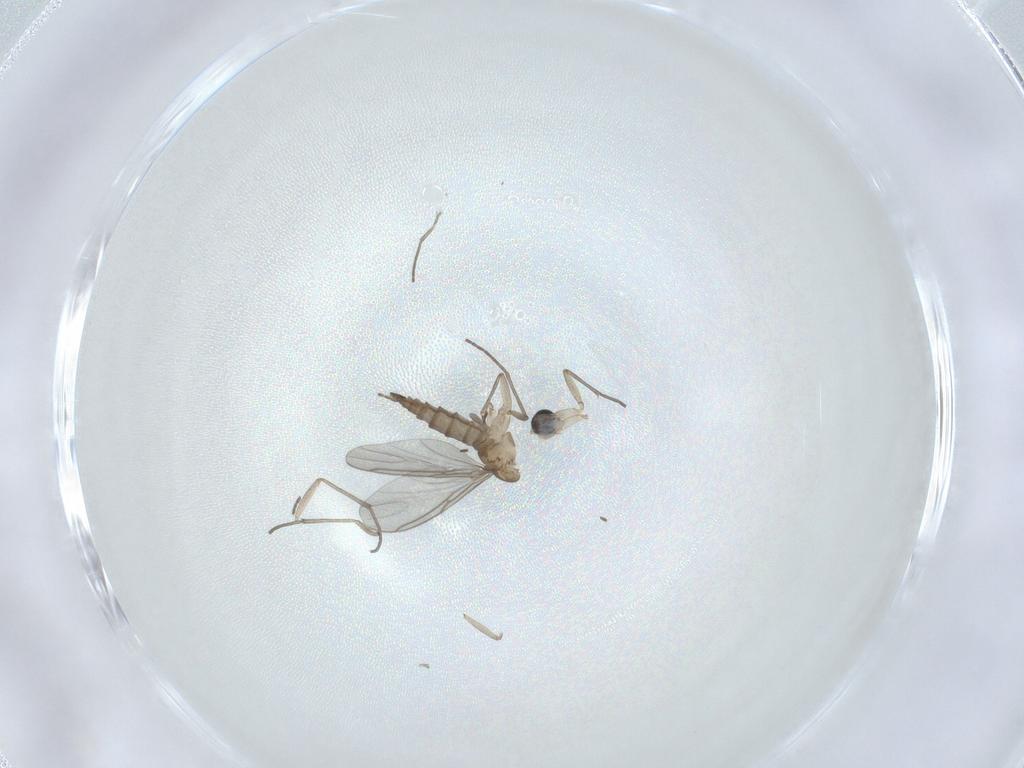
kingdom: Animalia
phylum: Arthropoda
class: Insecta
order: Diptera
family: Sciaridae
